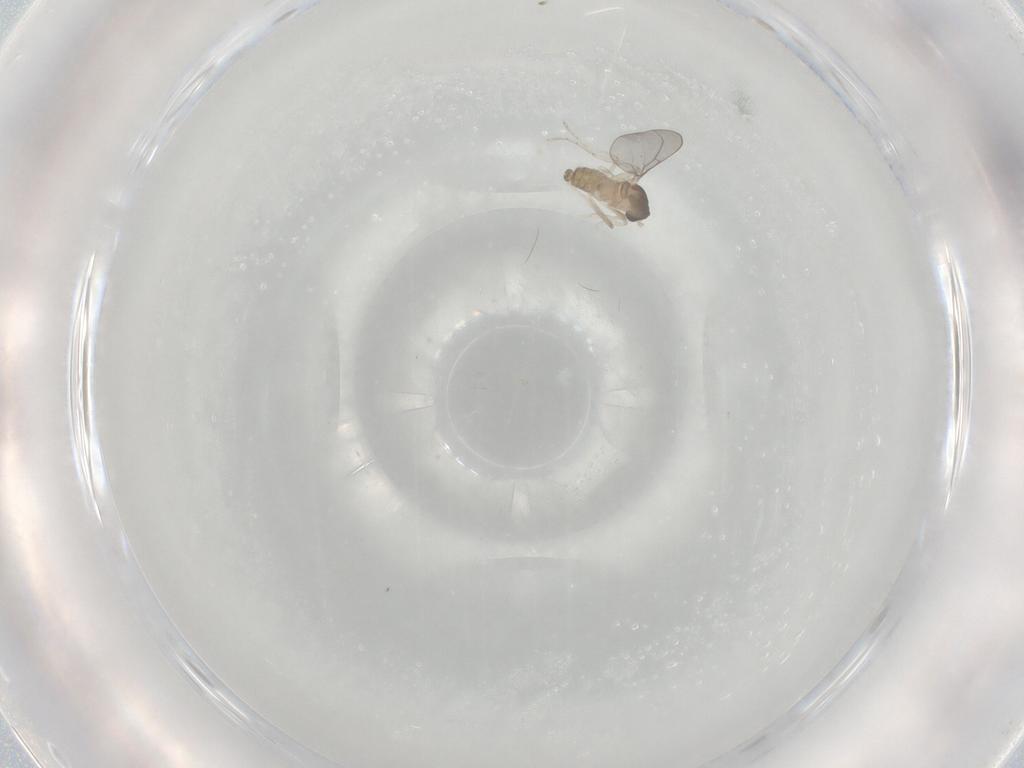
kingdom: Animalia
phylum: Arthropoda
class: Insecta
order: Diptera
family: Cecidomyiidae
